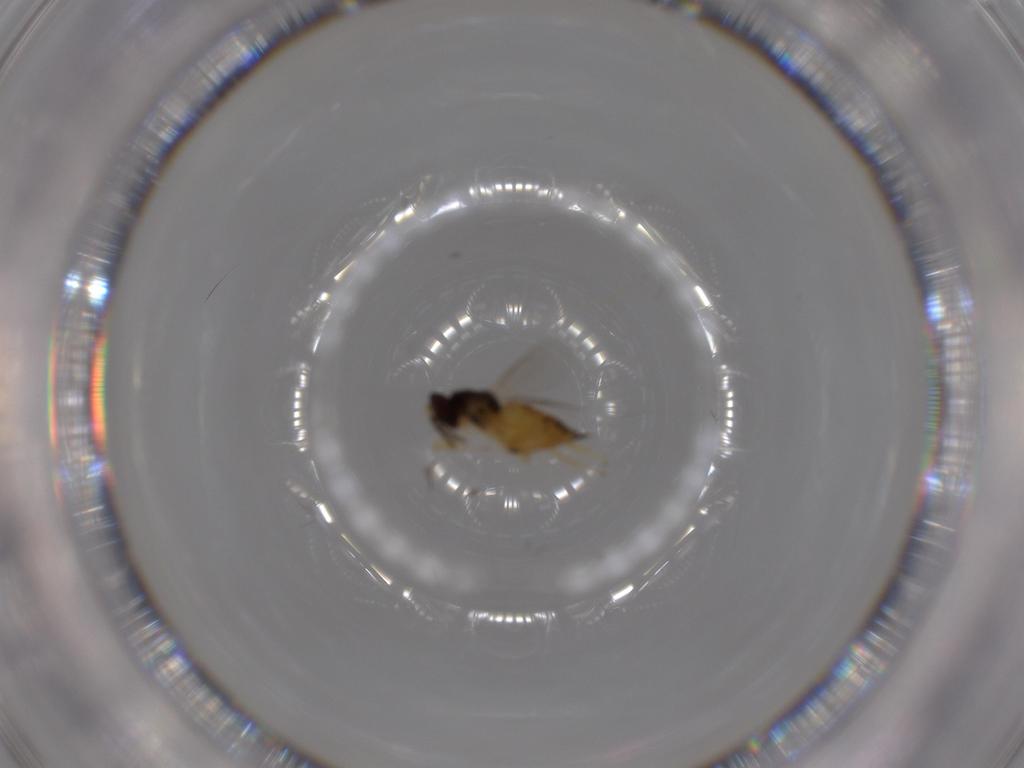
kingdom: Animalia
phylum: Arthropoda
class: Insecta
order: Hymenoptera
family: Eulophidae
